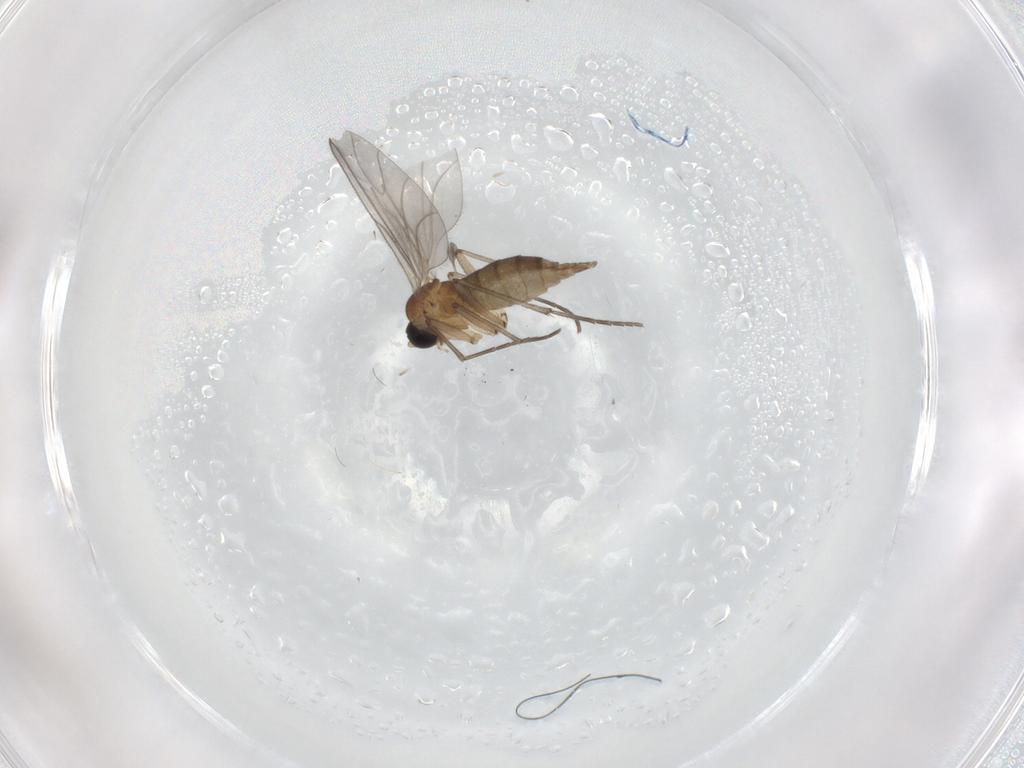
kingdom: Animalia
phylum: Arthropoda
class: Insecta
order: Diptera
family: Sciaridae
